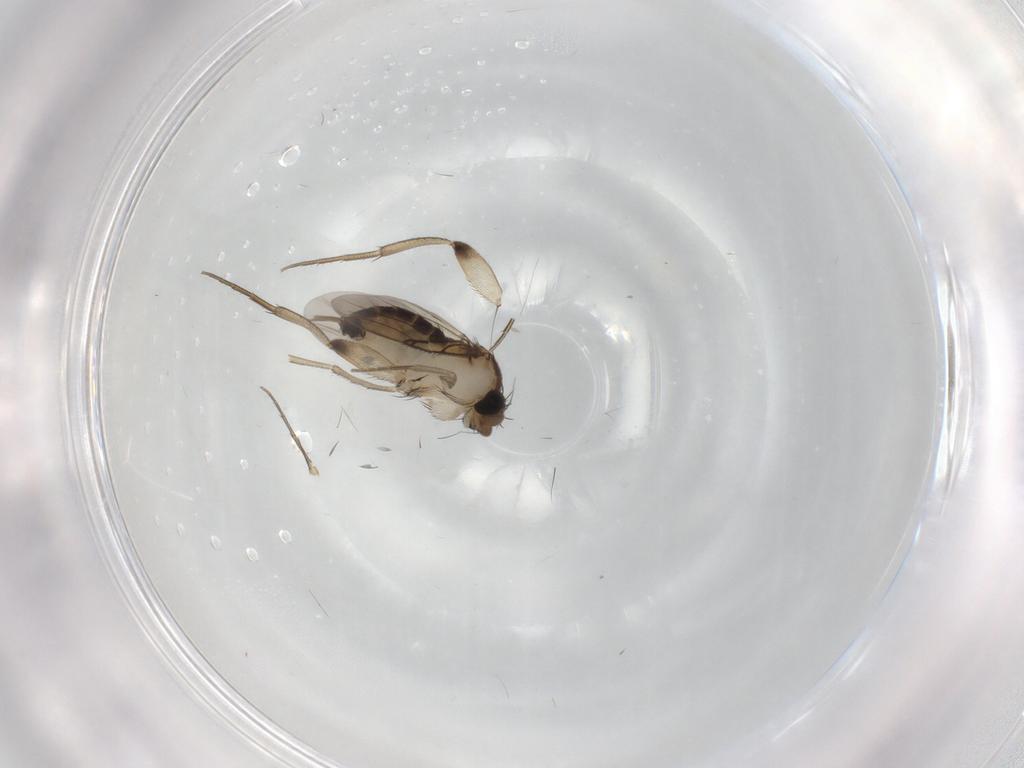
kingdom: Animalia
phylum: Arthropoda
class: Insecta
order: Diptera
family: Phoridae
